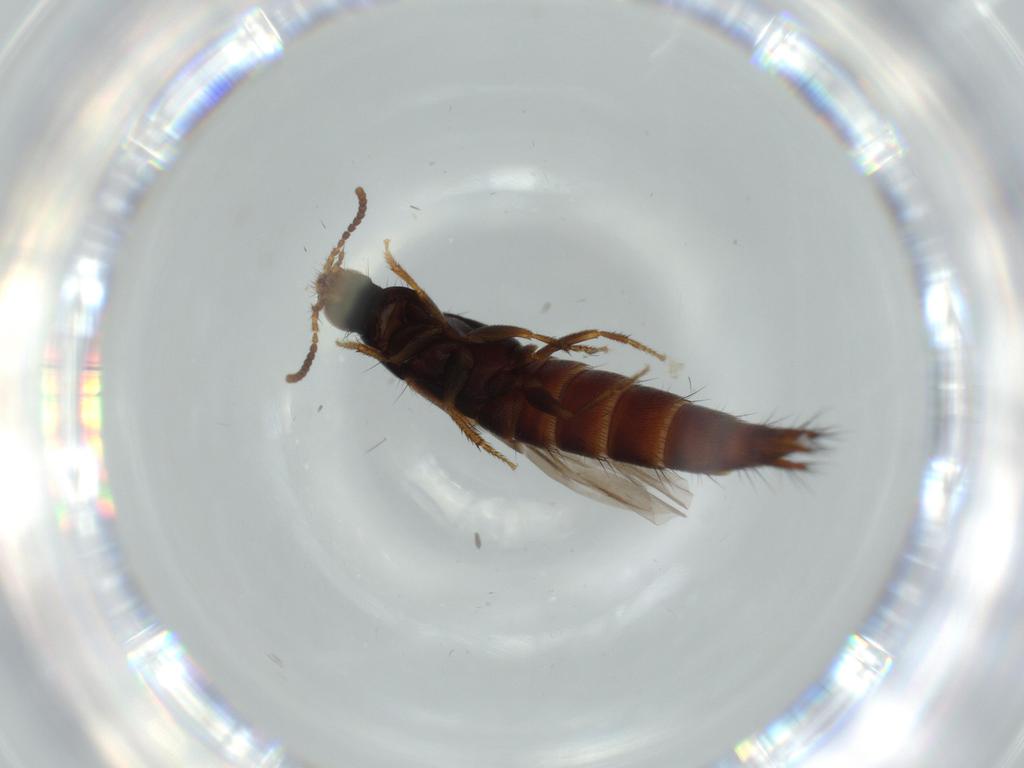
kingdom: Animalia
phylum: Arthropoda
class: Insecta
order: Coleoptera
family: Staphylinidae
